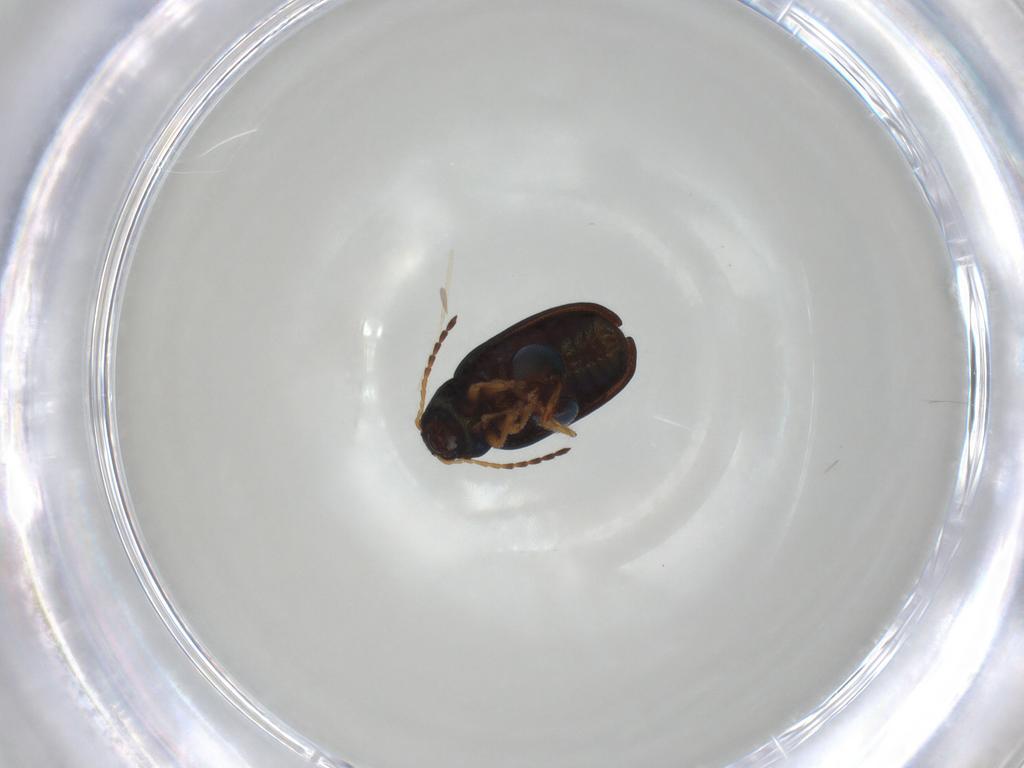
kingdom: Animalia
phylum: Arthropoda
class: Insecta
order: Coleoptera
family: Chrysomelidae
